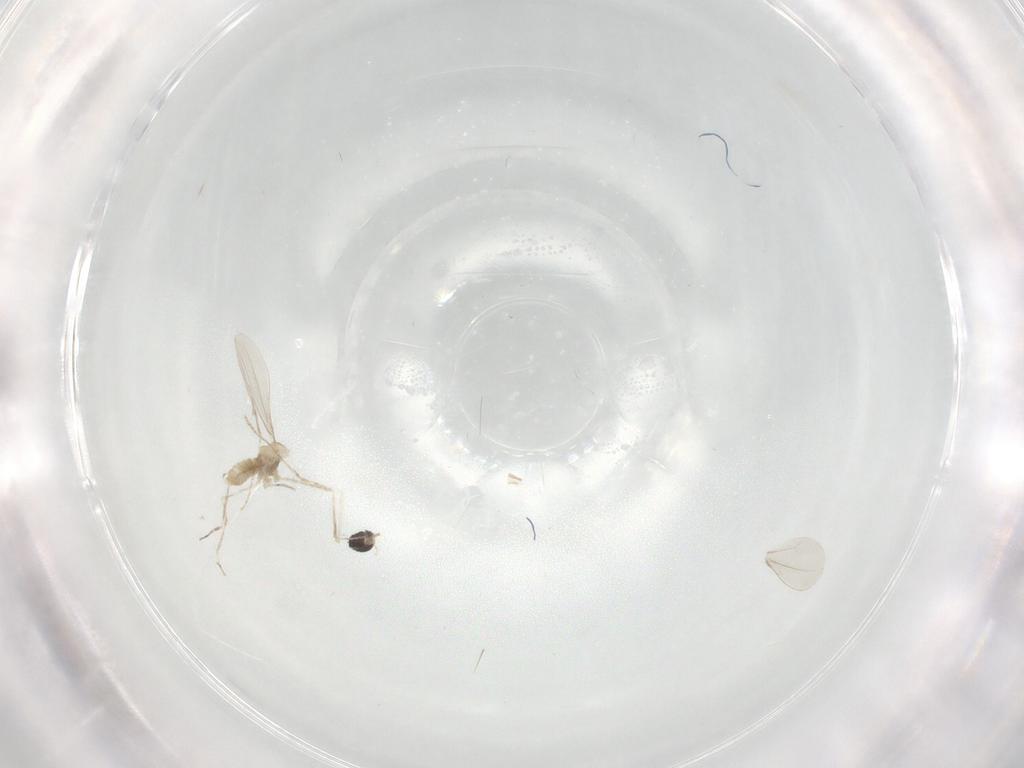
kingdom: Animalia
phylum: Arthropoda
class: Insecta
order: Diptera
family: Cecidomyiidae
